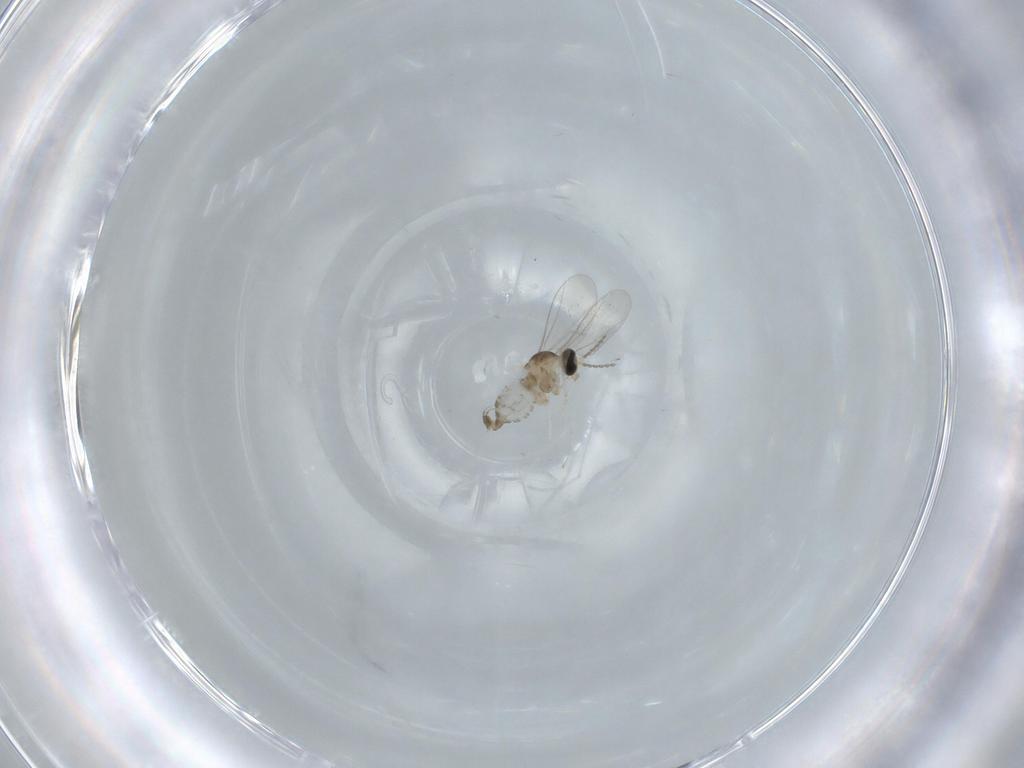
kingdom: Animalia
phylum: Arthropoda
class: Insecta
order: Diptera
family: Cecidomyiidae
